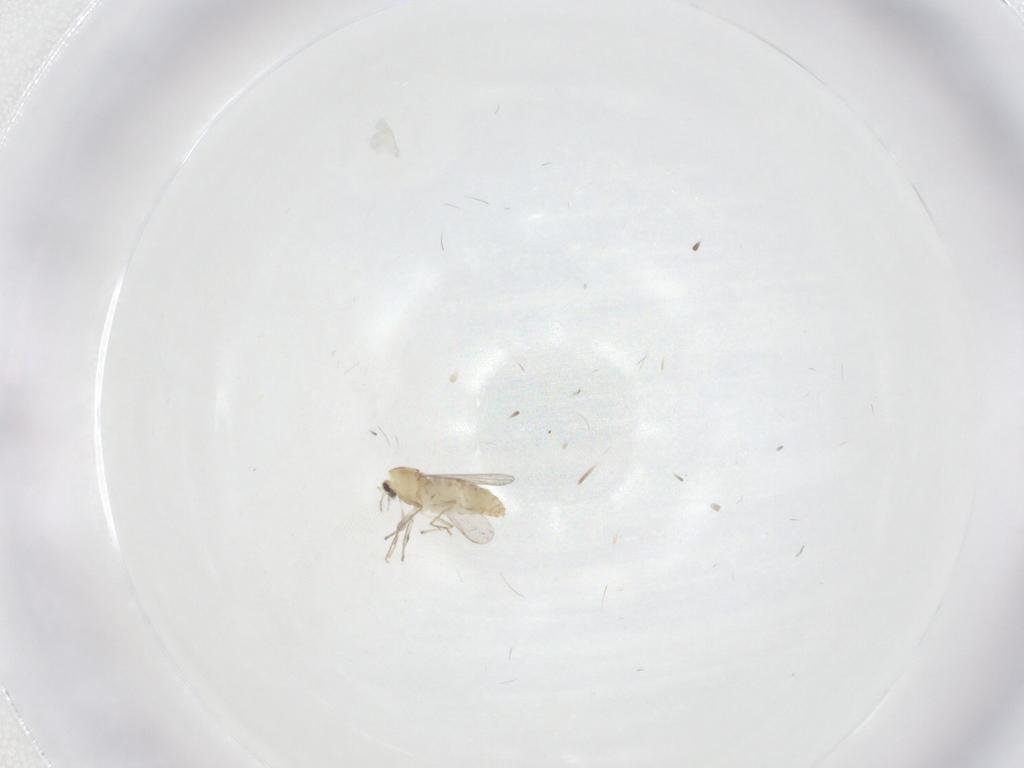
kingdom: Animalia
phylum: Arthropoda
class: Insecta
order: Diptera
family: Chironomidae
